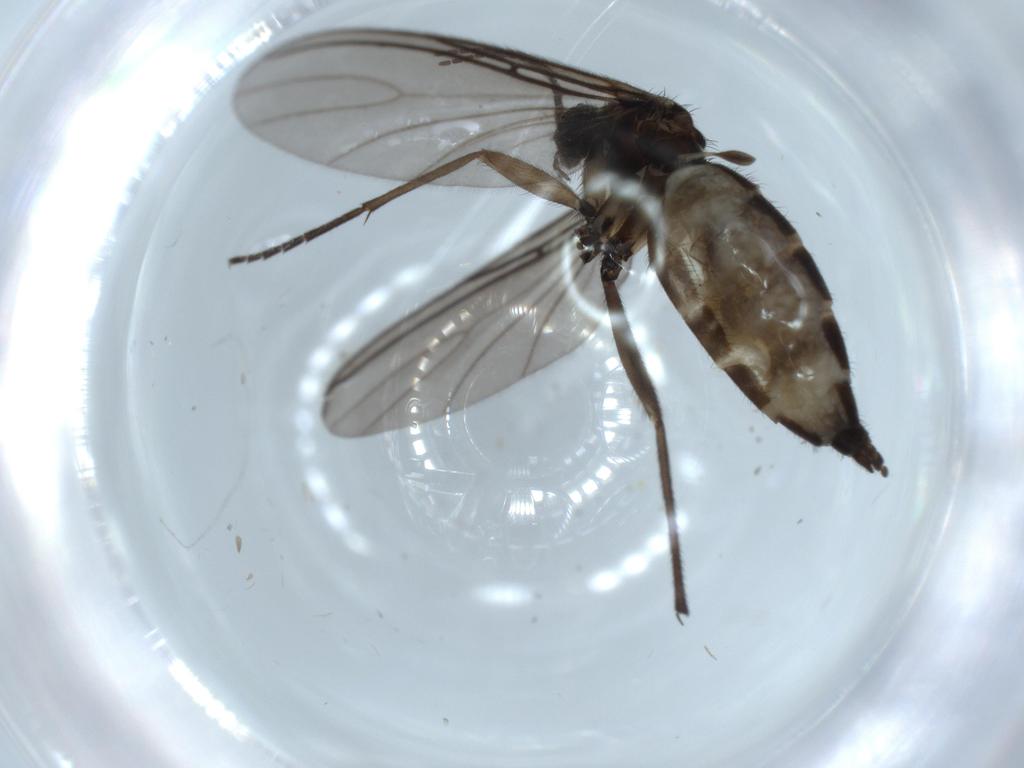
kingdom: Animalia
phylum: Arthropoda
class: Insecta
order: Diptera
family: Sciaridae
